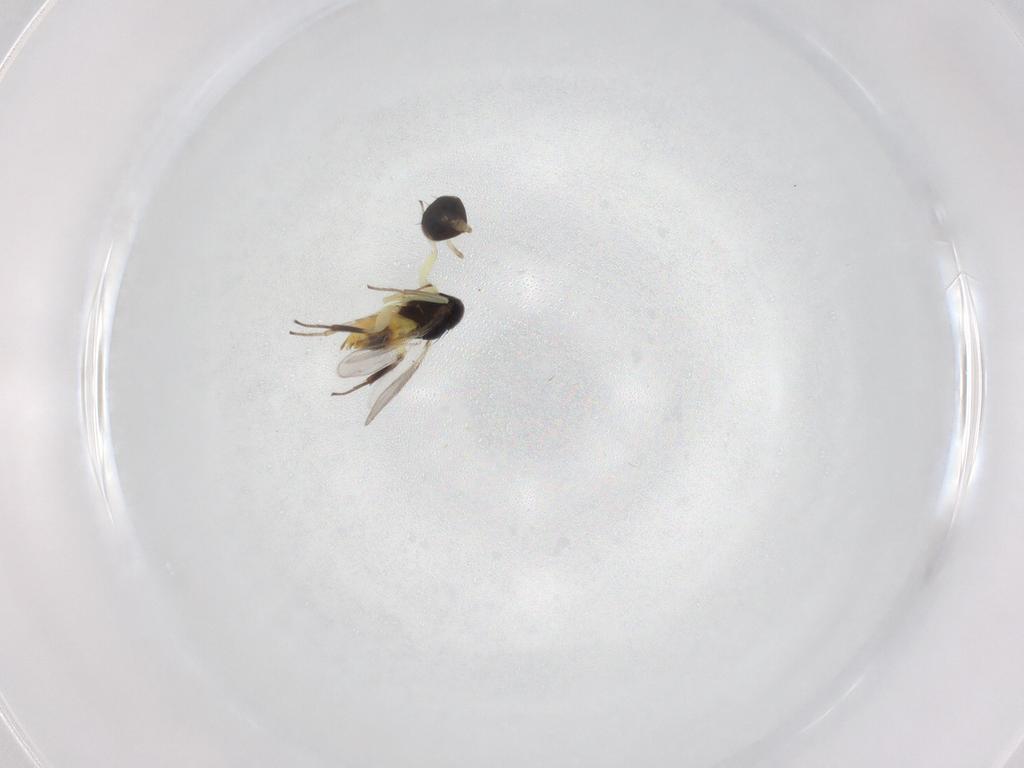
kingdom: Animalia
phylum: Arthropoda
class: Insecta
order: Hymenoptera
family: Aphelinidae
